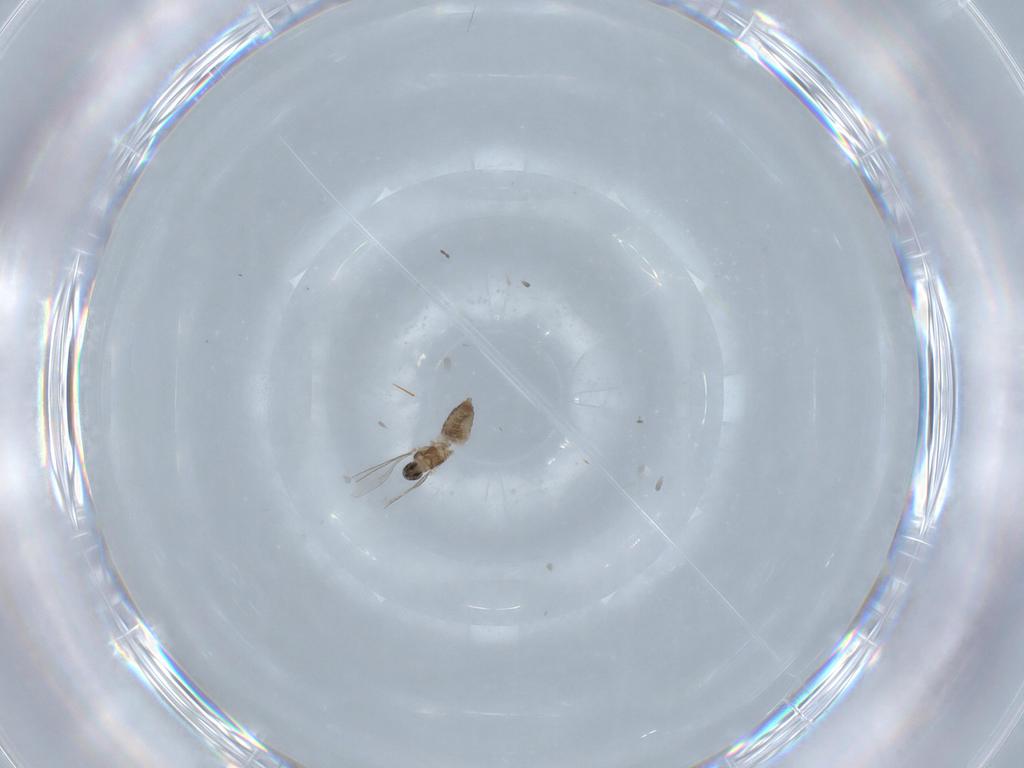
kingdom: Animalia
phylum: Arthropoda
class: Insecta
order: Diptera
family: Cecidomyiidae
